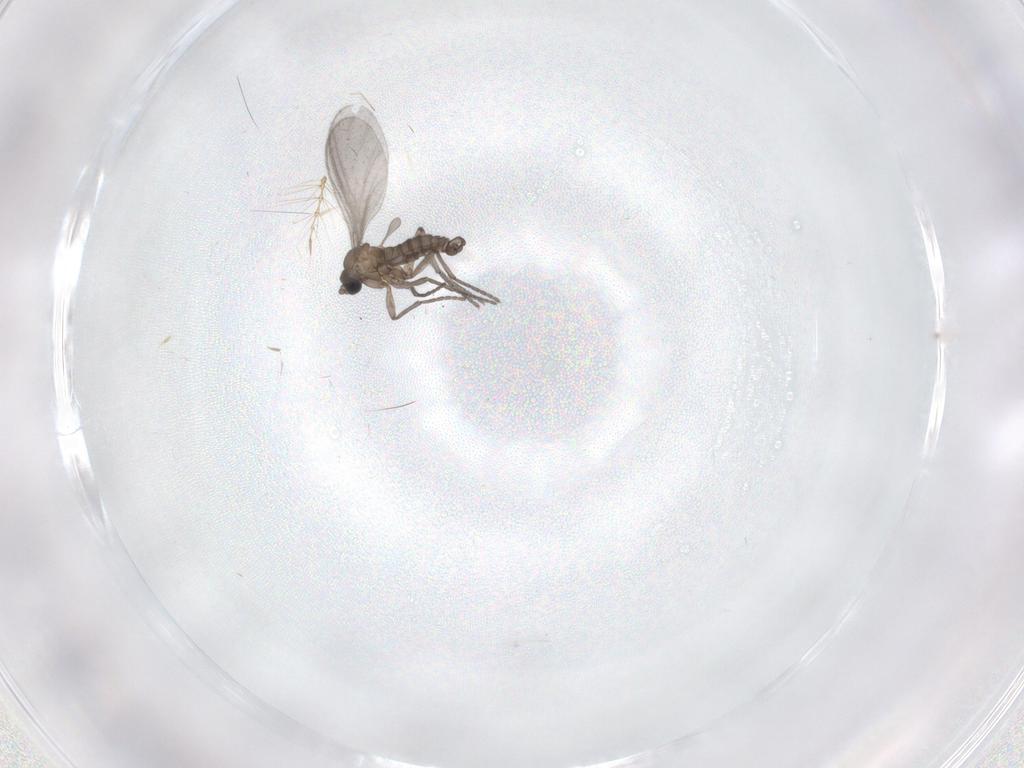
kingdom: Animalia
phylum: Arthropoda
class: Insecta
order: Diptera
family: Sciaridae
